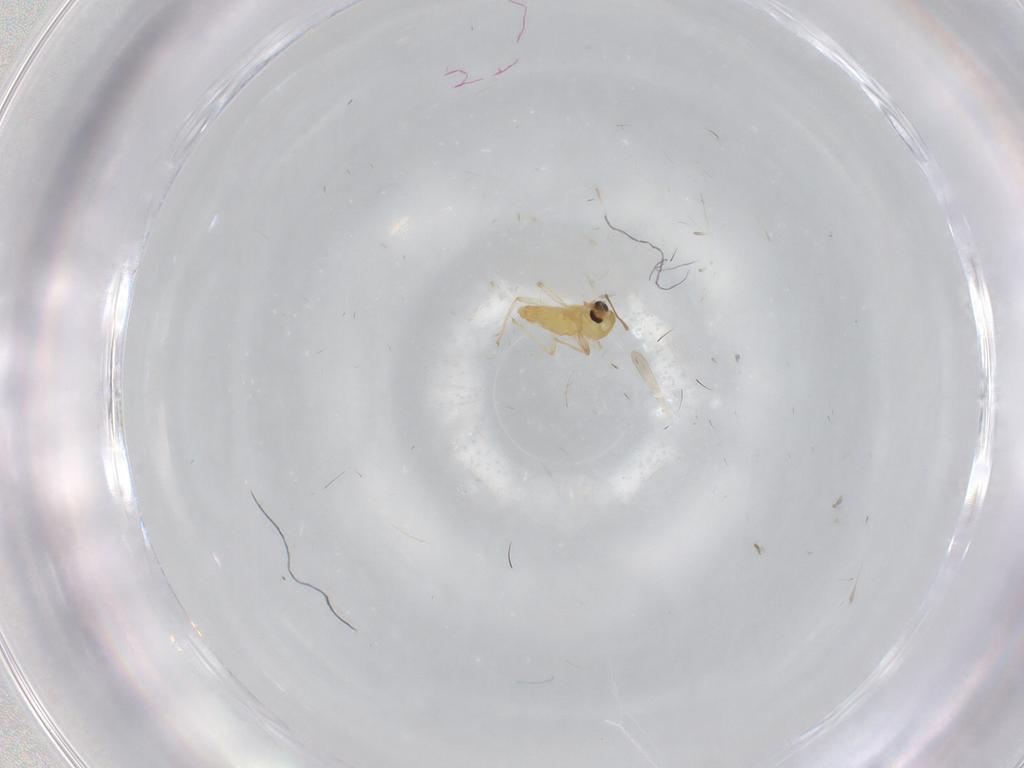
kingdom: Animalia
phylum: Arthropoda
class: Insecta
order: Diptera
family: Chironomidae
